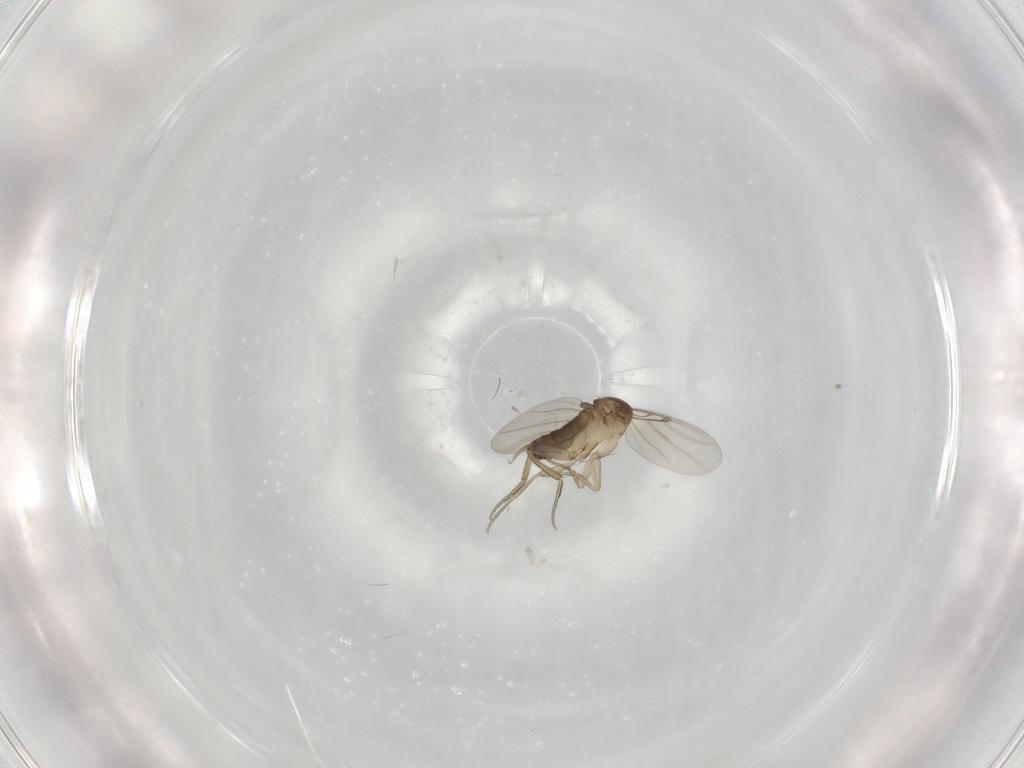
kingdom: Animalia
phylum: Arthropoda
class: Insecta
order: Diptera
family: Phoridae
